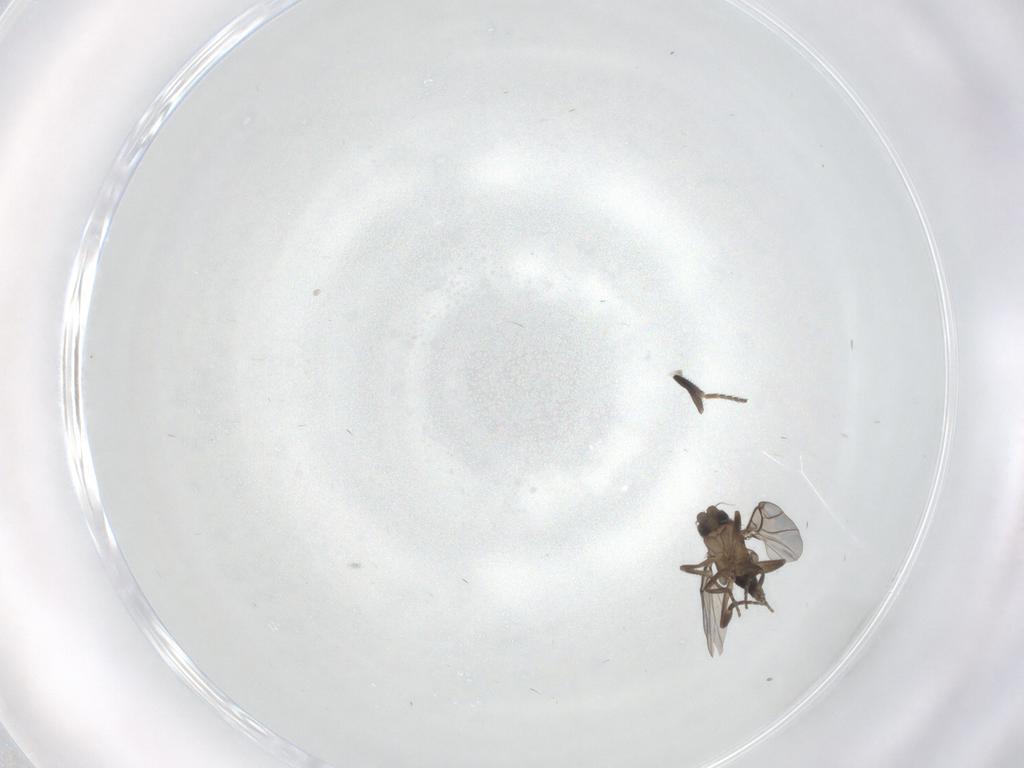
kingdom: Animalia
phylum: Arthropoda
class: Insecta
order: Diptera
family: Milichiidae
